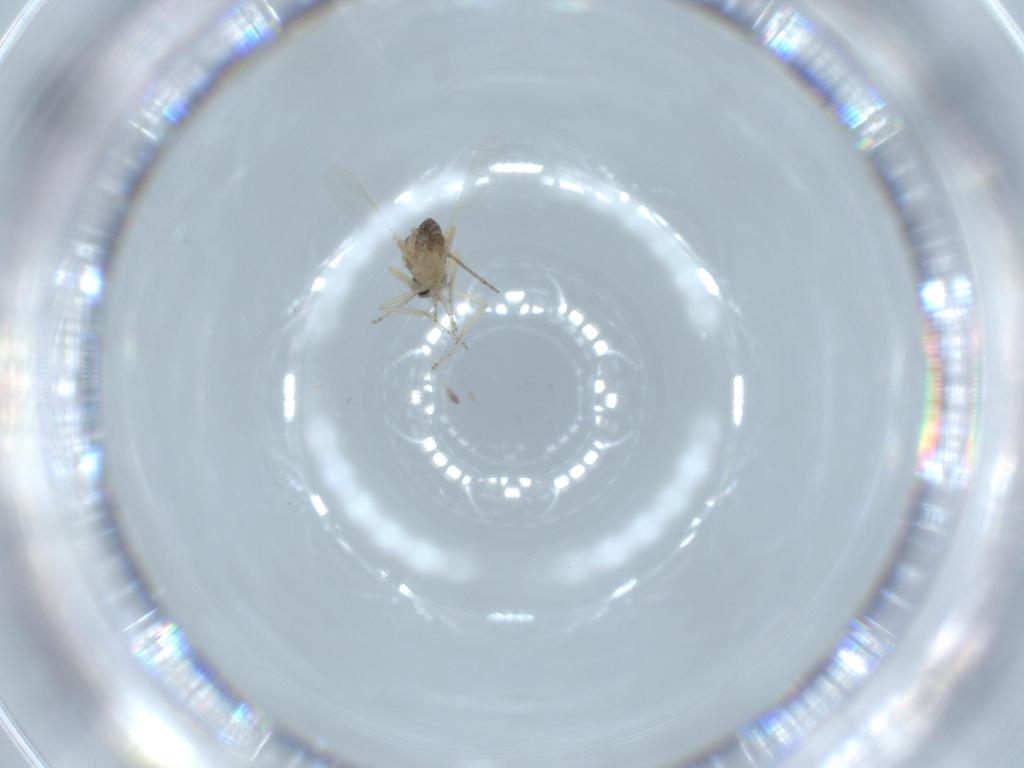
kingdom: Animalia
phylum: Arthropoda
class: Insecta
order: Diptera
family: Ceratopogonidae
